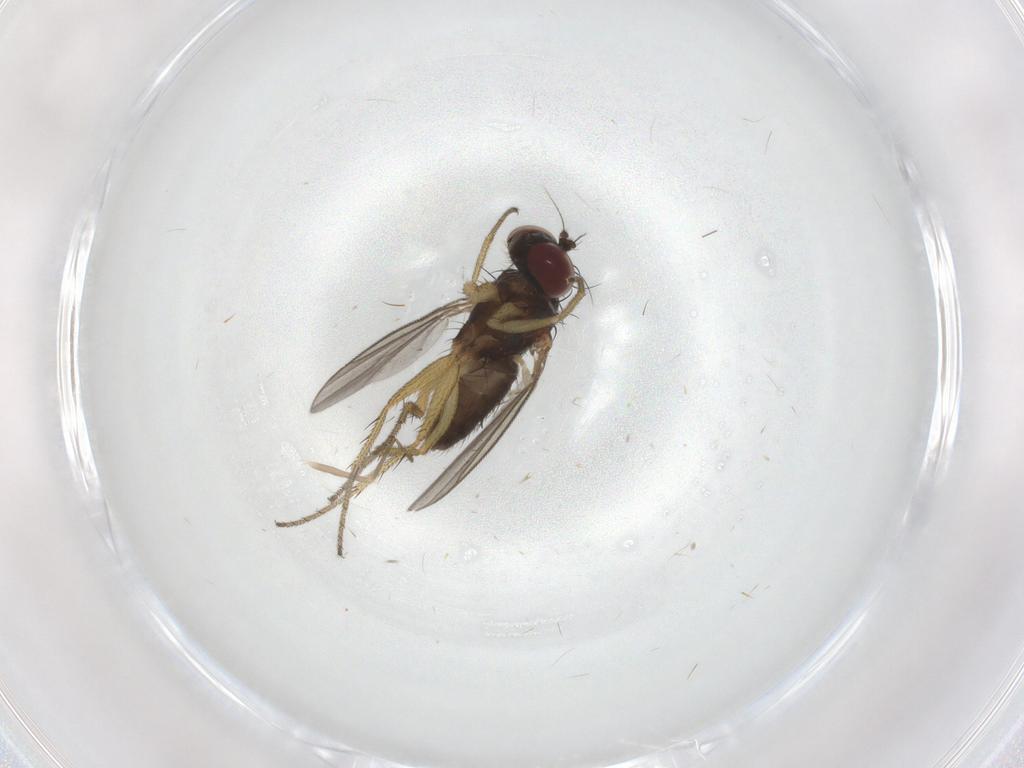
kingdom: Animalia
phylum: Arthropoda
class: Insecta
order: Diptera
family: Dolichopodidae
